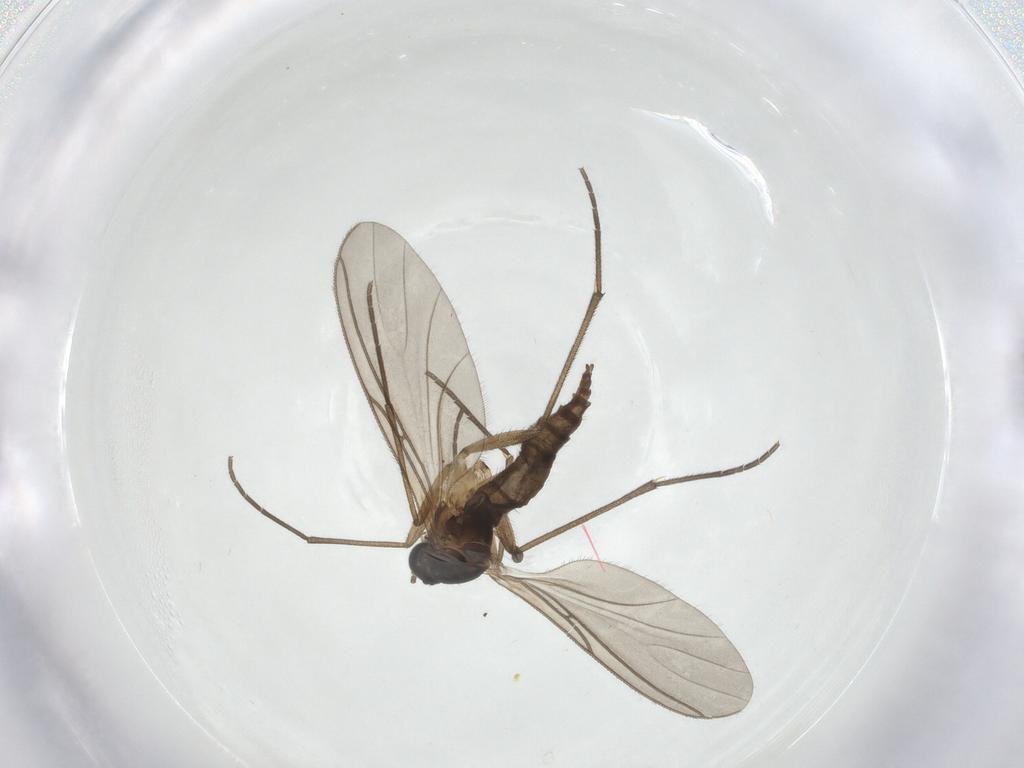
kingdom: Animalia
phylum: Arthropoda
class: Insecta
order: Diptera
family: Sciaridae
